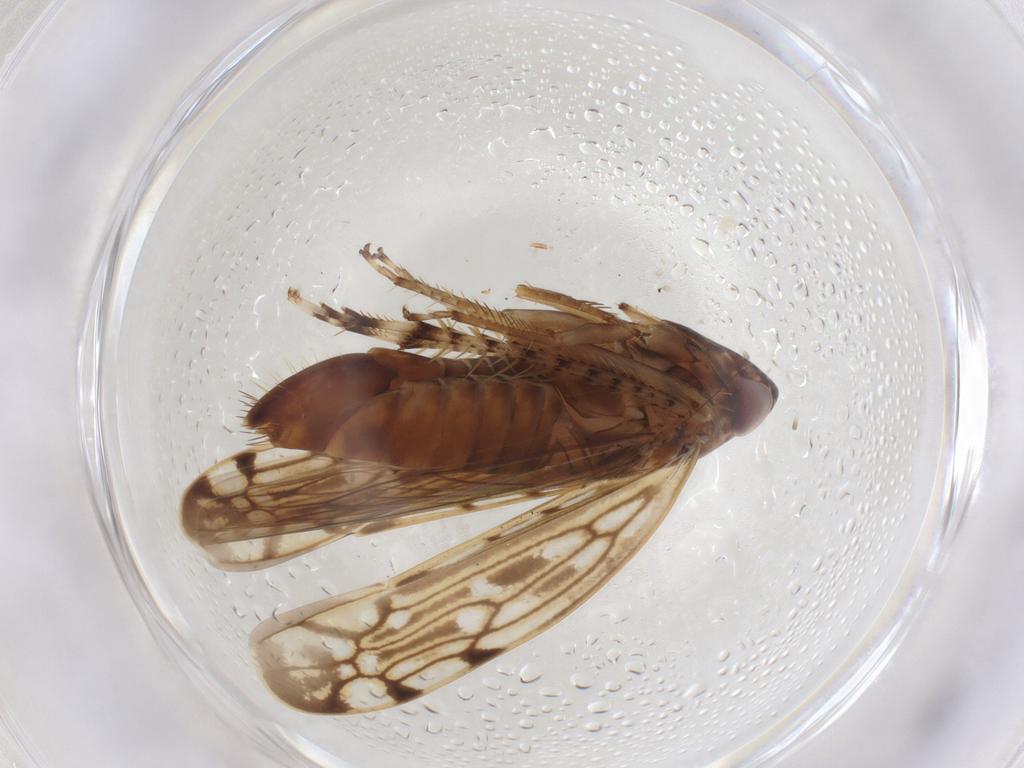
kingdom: Animalia
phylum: Arthropoda
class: Insecta
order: Hemiptera
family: Cicadellidae
